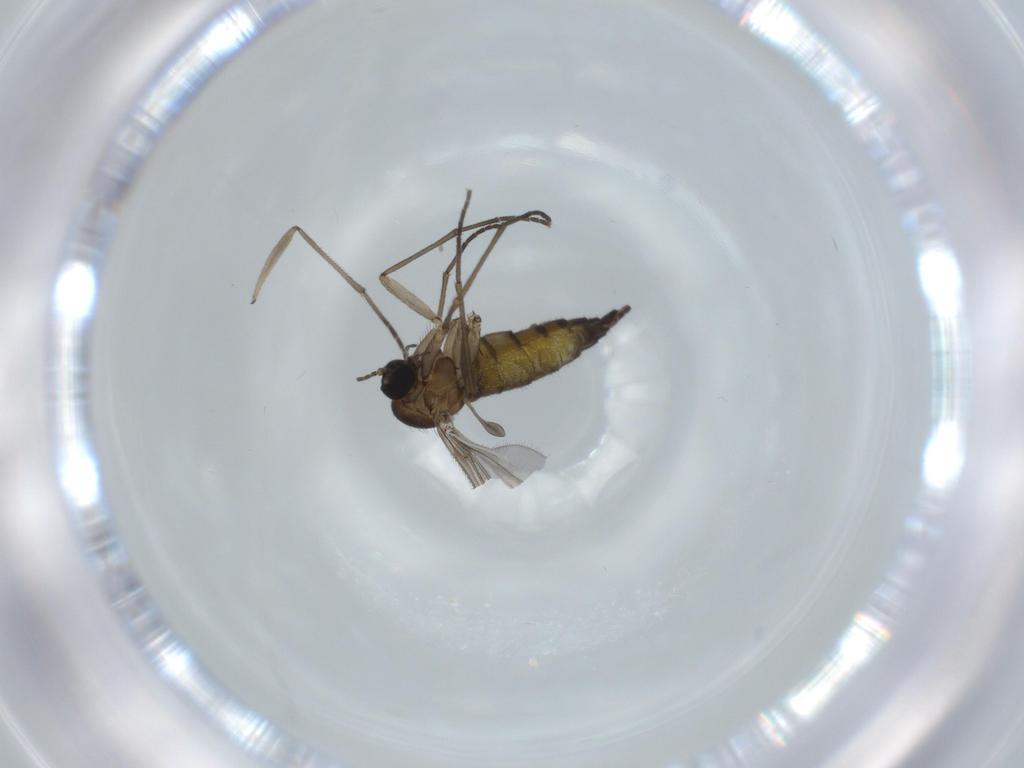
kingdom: Animalia
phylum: Arthropoda
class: Insecta
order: Diptera
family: Sciaridae
